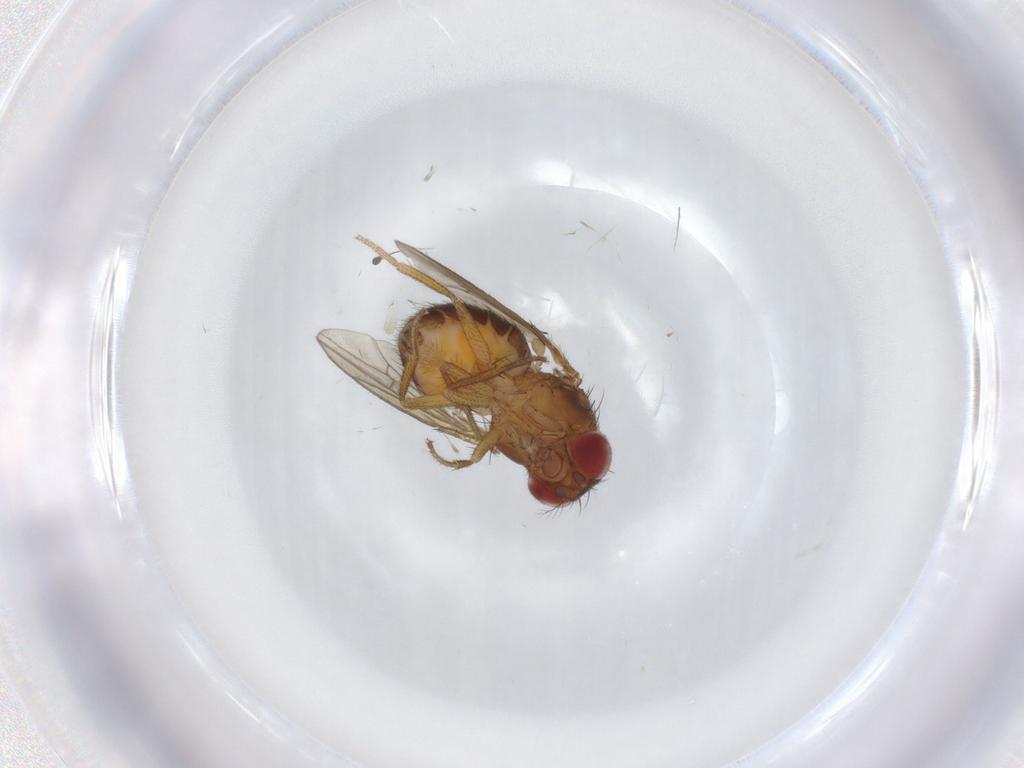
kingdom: Animalia
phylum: Arthropoda
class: Insecta
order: Diptera
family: Drosophilidae
